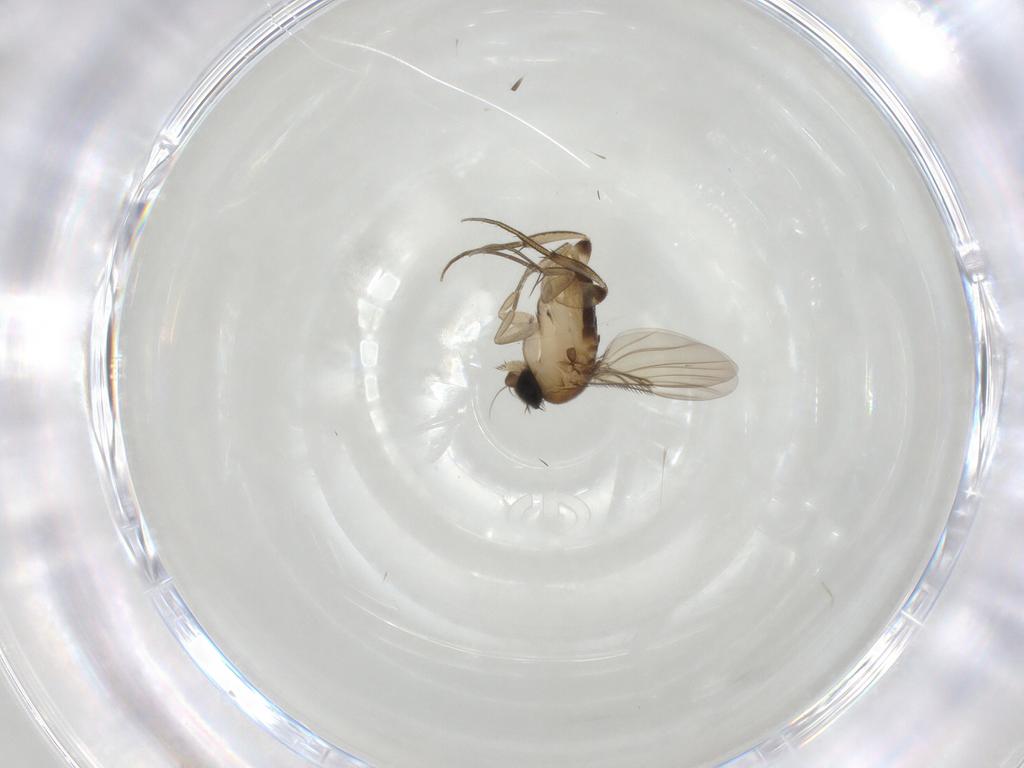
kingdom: Animalia
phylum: Arthropoda
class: Insecta
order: Diptera
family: Phoridae
